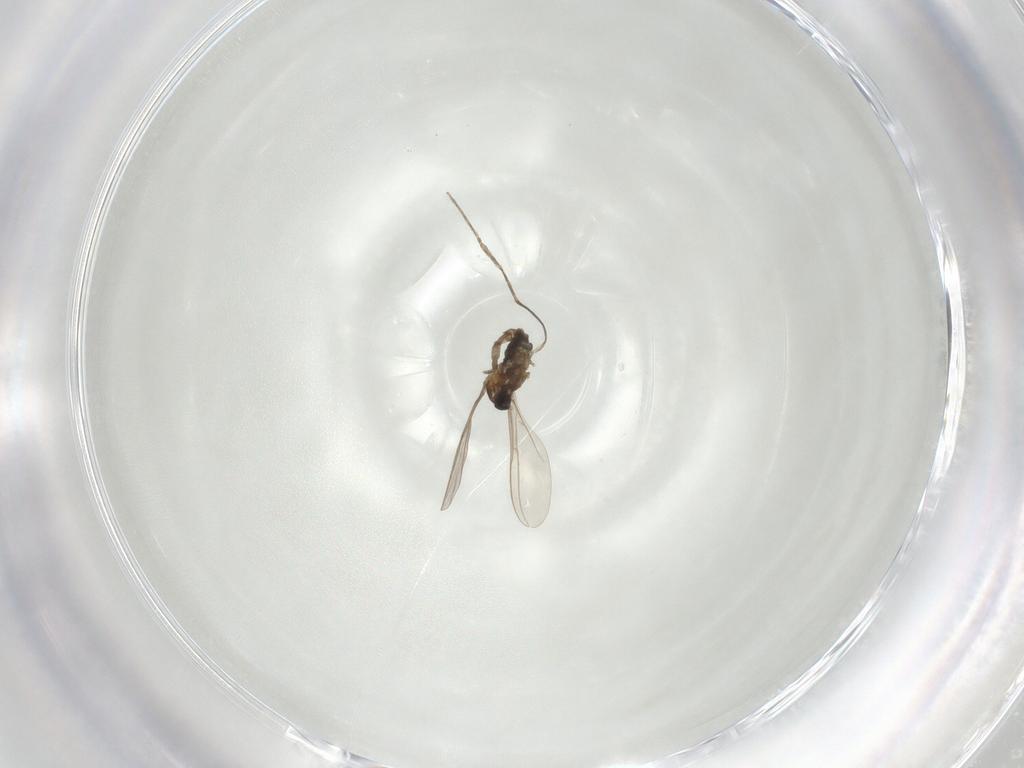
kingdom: Animalia
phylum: Arthropoda
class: Insecta
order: Diptera
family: Cecidomyiidae
